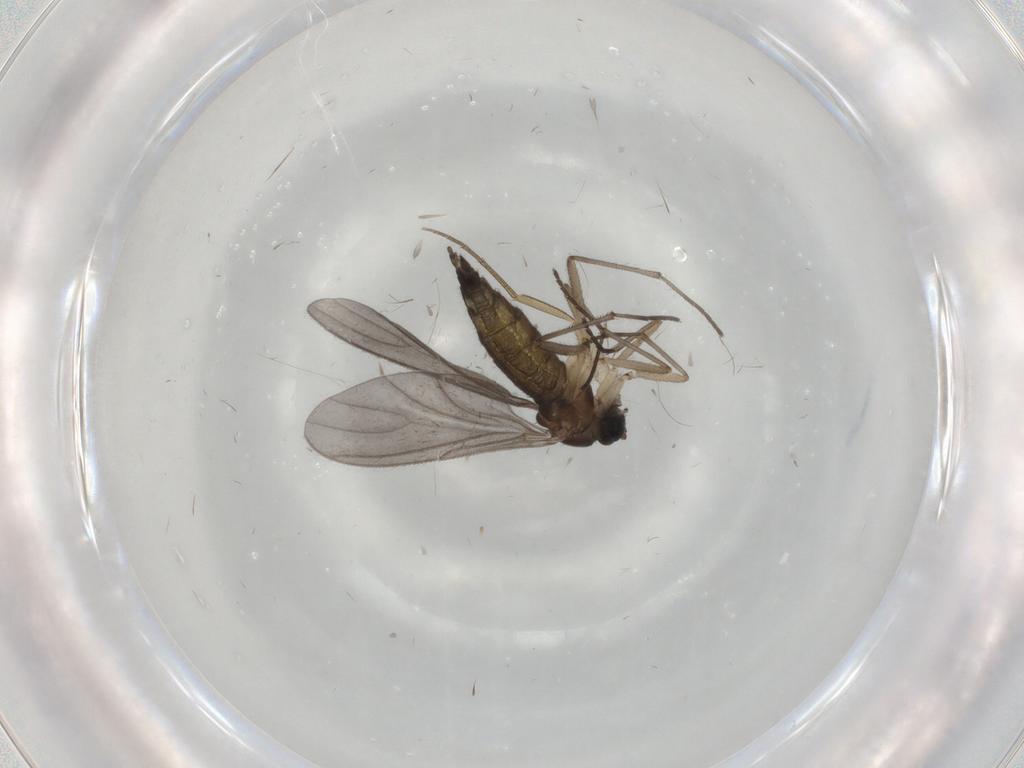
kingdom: Animalia
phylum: Arthropoda
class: Insecta
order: Diptera
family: Sciaridae
